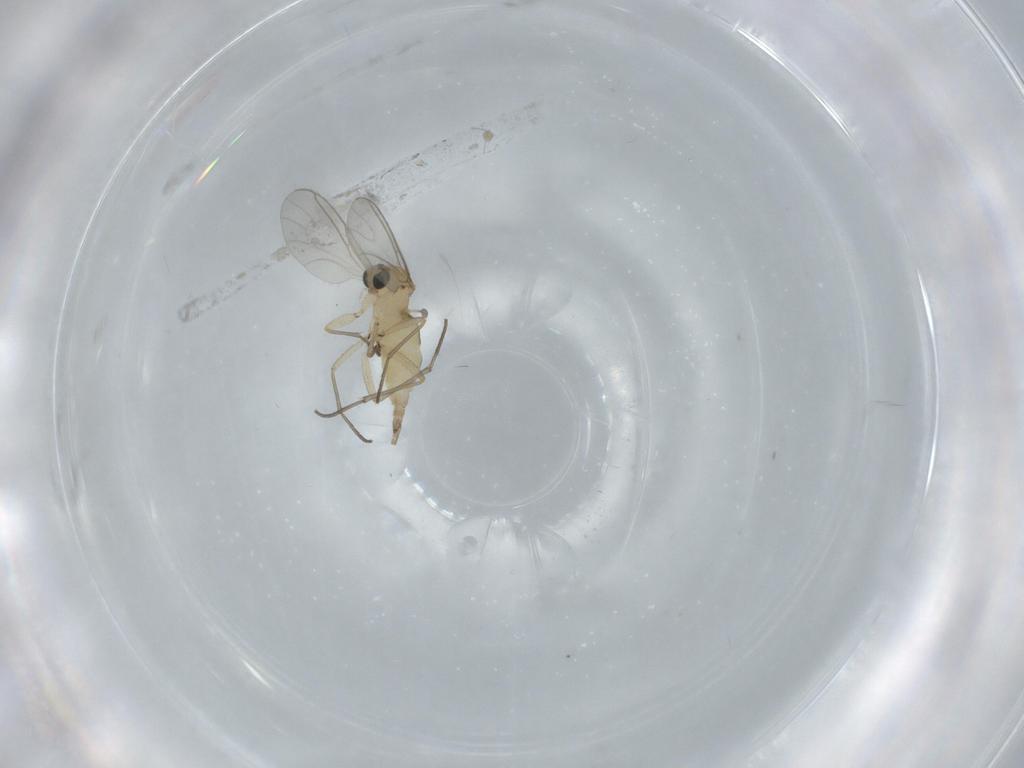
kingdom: Animalia
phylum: Arthropoda
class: Insecta
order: Diptera
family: Sciaridae
